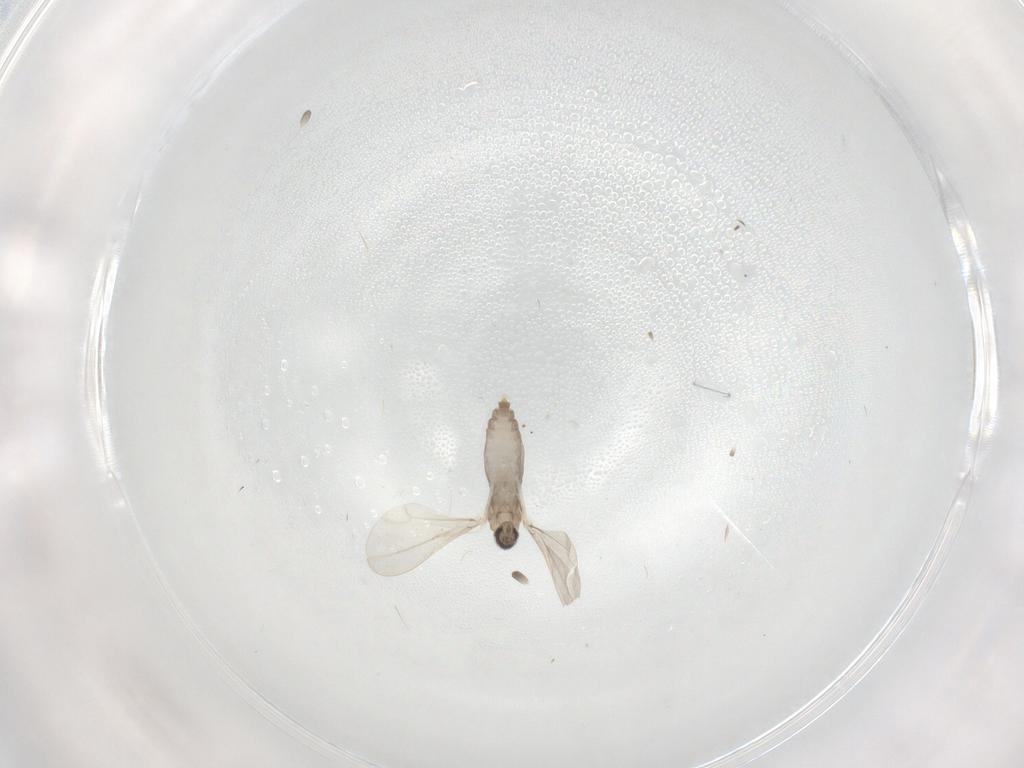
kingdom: Animalia
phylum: Arthropoda
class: Insecta
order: Diptera
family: Cecidomyiidae
